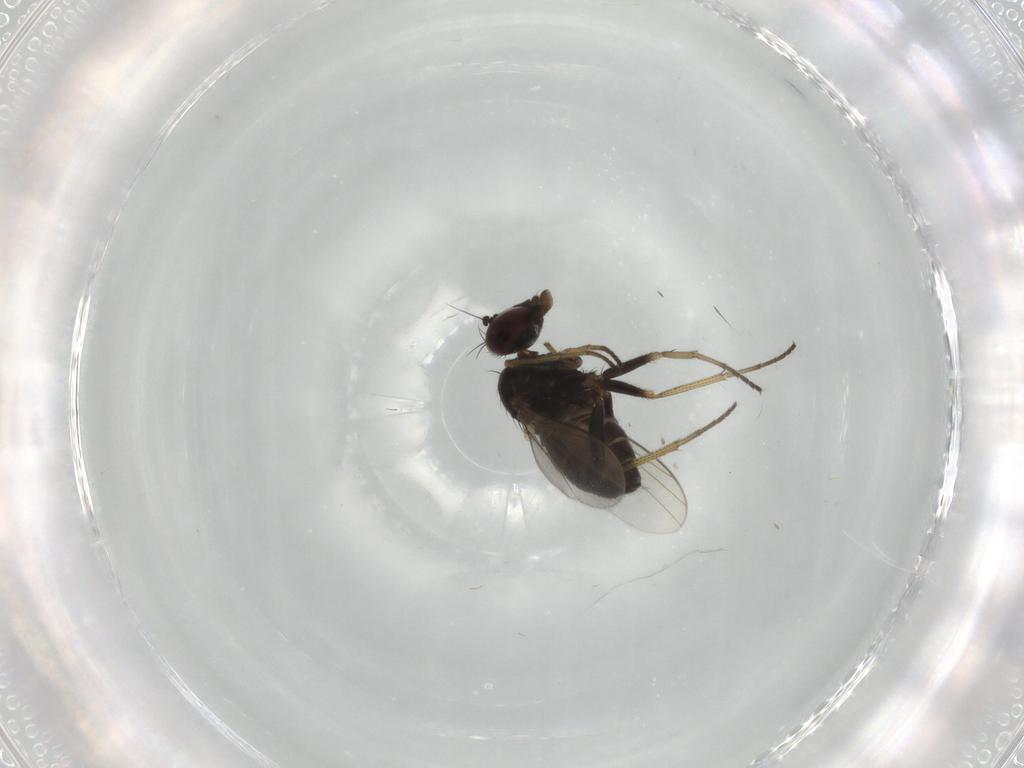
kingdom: Animalia
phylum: Arthropoda
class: Insecta
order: Diptera
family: Dolichopodidae
